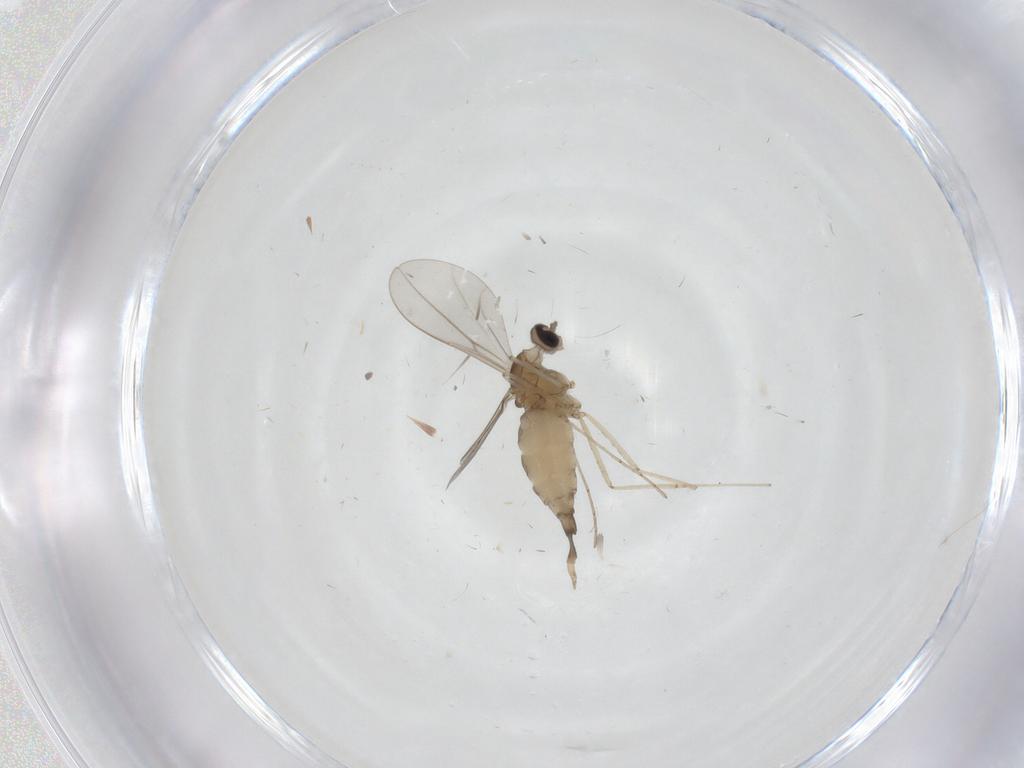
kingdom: Animalia
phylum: Arthropoda
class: Insecta
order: Diptera
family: Cecidomyiidae
